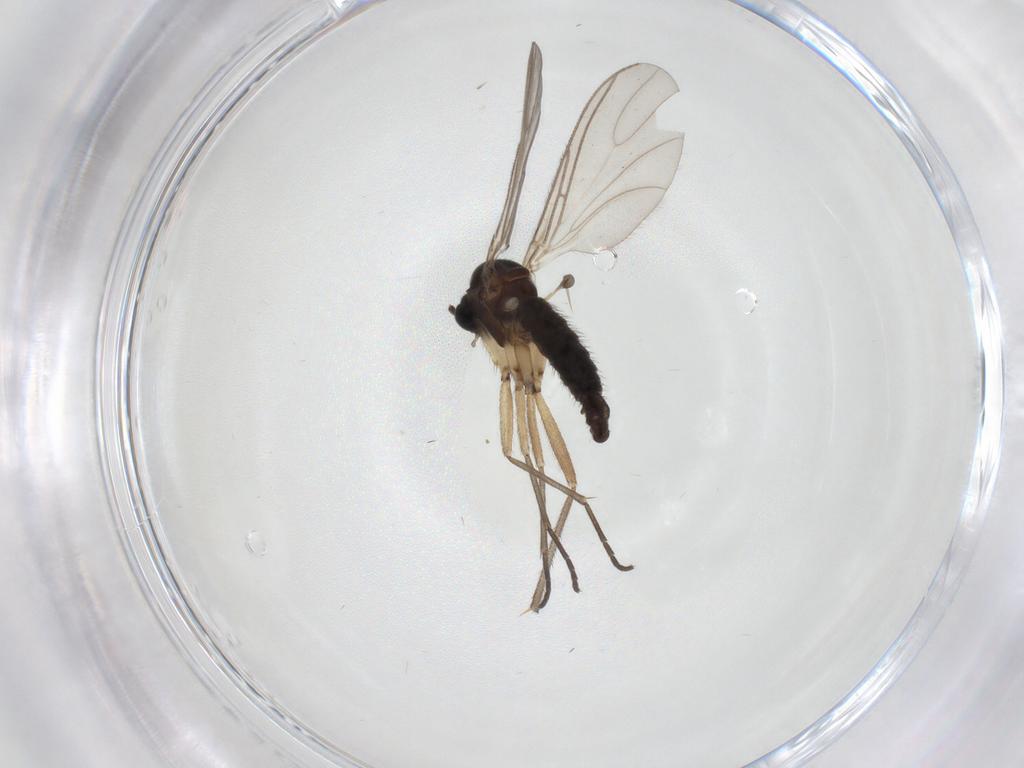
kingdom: Animalia
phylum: Arthropoda
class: Insecta
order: Diptera
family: Sciaridae
